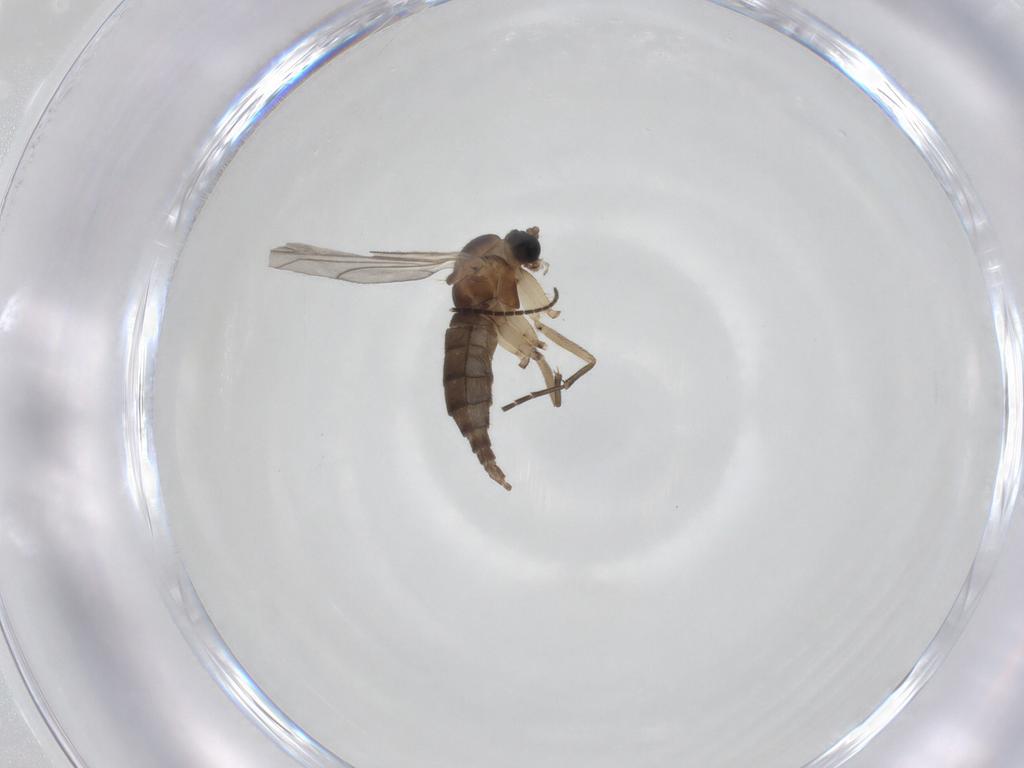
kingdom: Animalia
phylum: Arthropoda
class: Insecta
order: Diptera
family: Sciaridae
